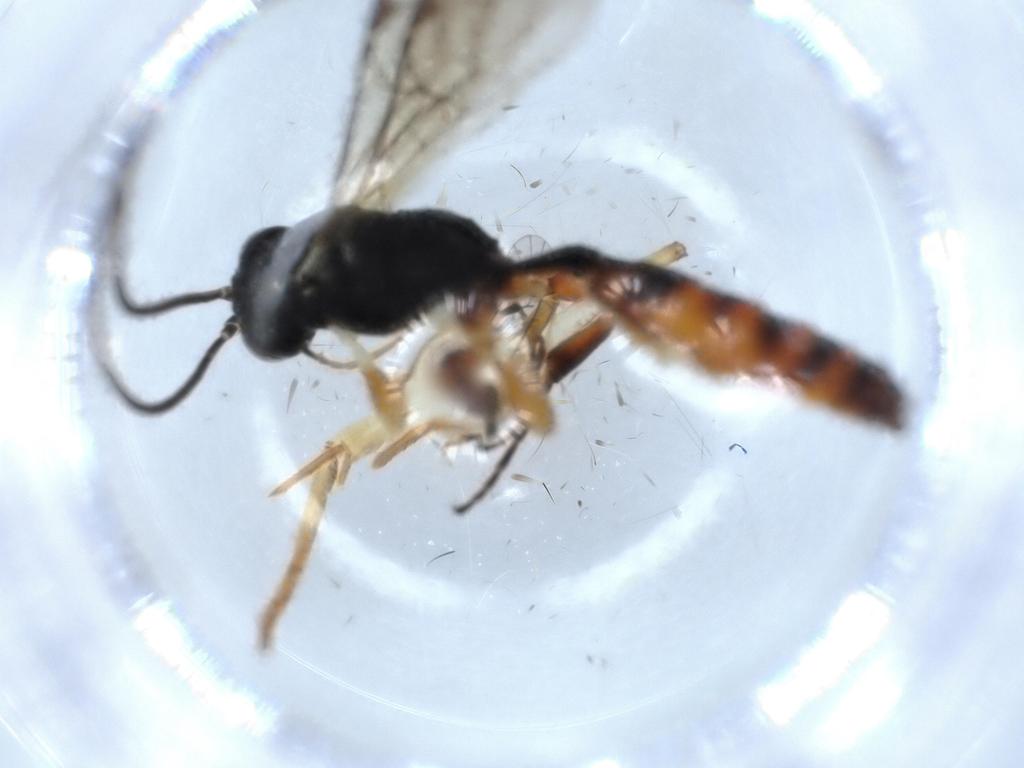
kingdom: Animalia
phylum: Arthropoda
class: Insecta
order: Hymenoptera
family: Ichneumonidae
